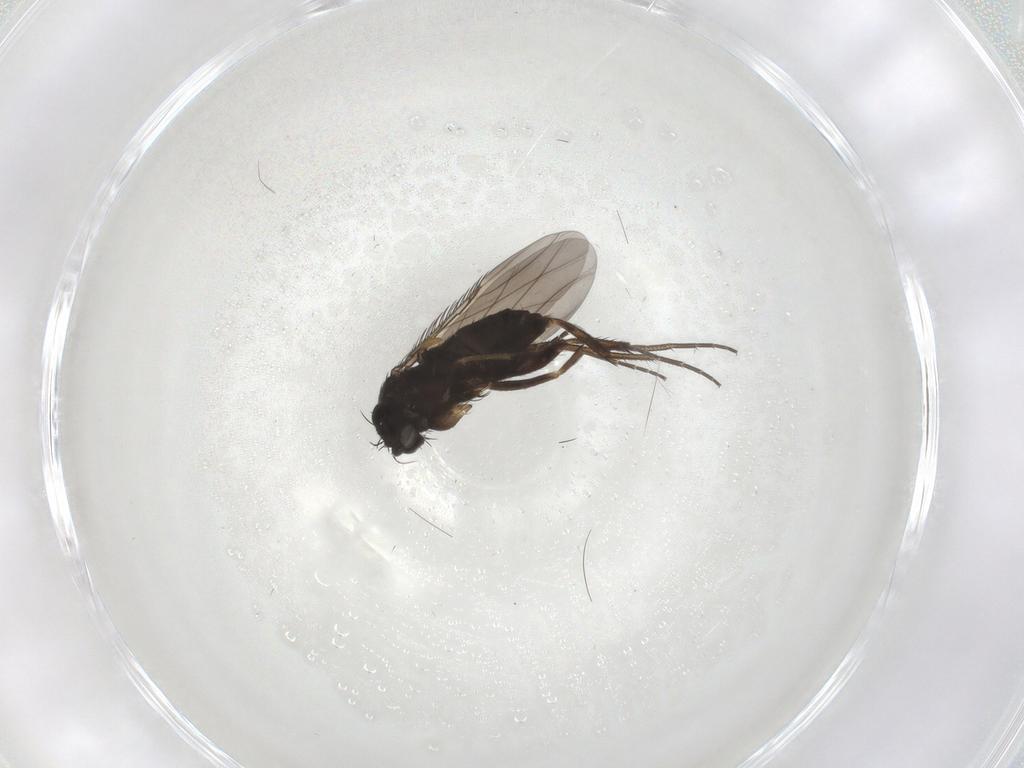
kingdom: Animalia
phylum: Arthropoda
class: Insecta
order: Diptera
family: Phoridae
